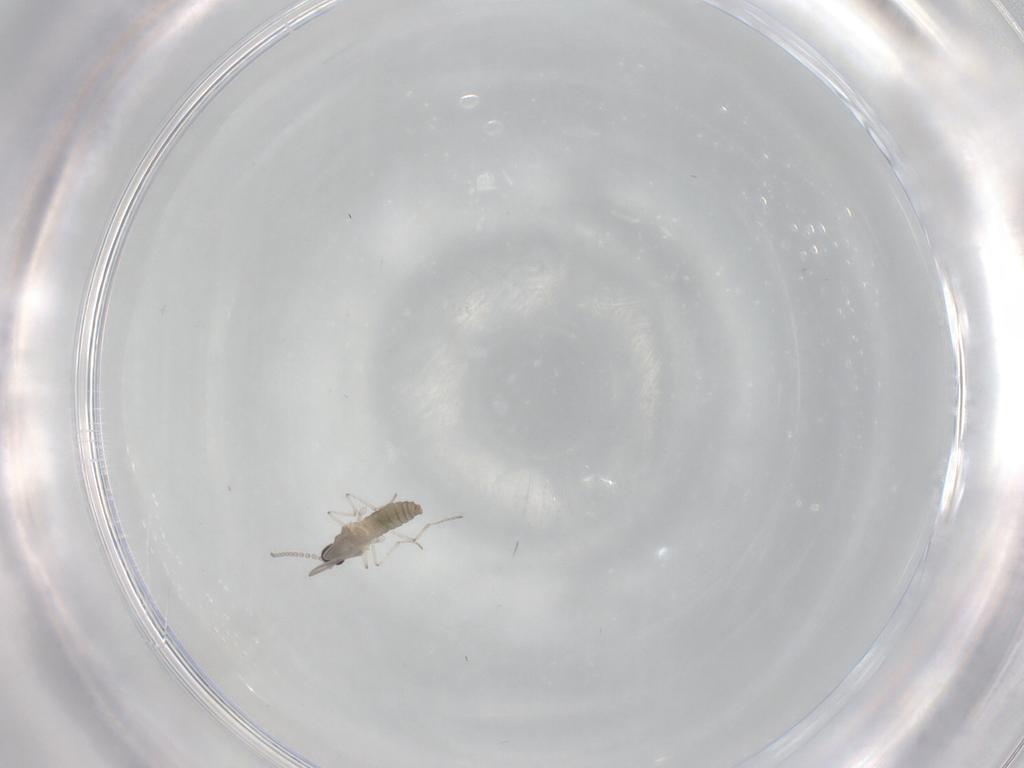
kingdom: Animalia
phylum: Arthropoda
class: Insecta
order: Diptera
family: Cecidomyiidae
